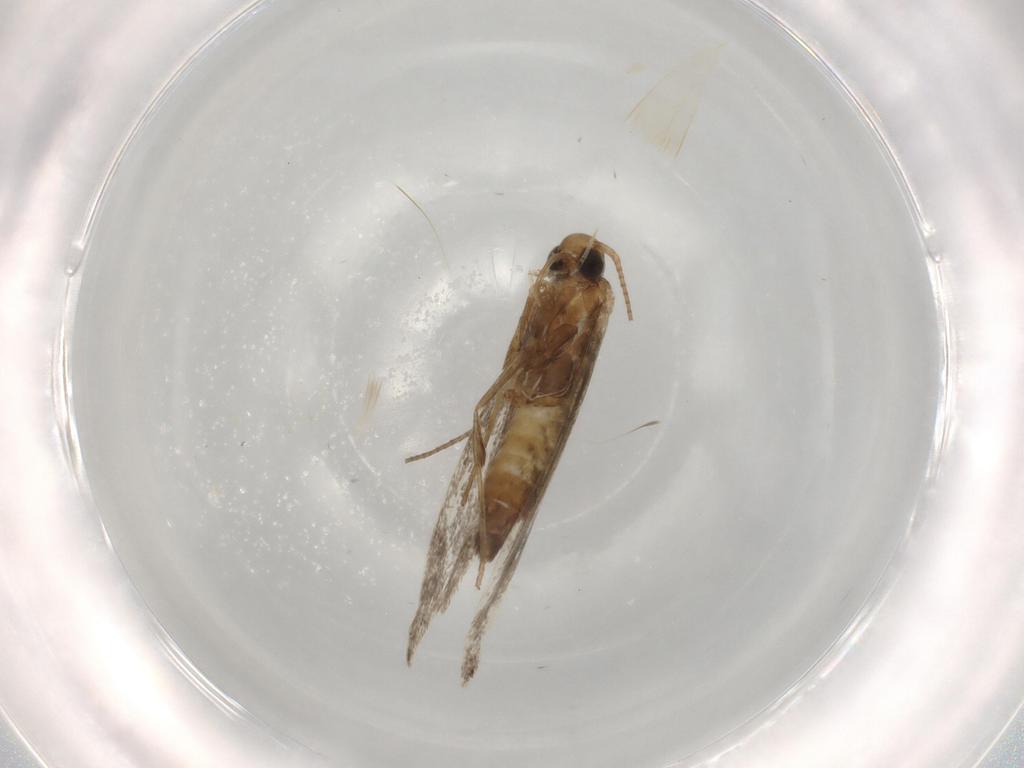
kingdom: Animalia
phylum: Arthropoda
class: Insecta
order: Lepidoptera
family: Gracillariidae
